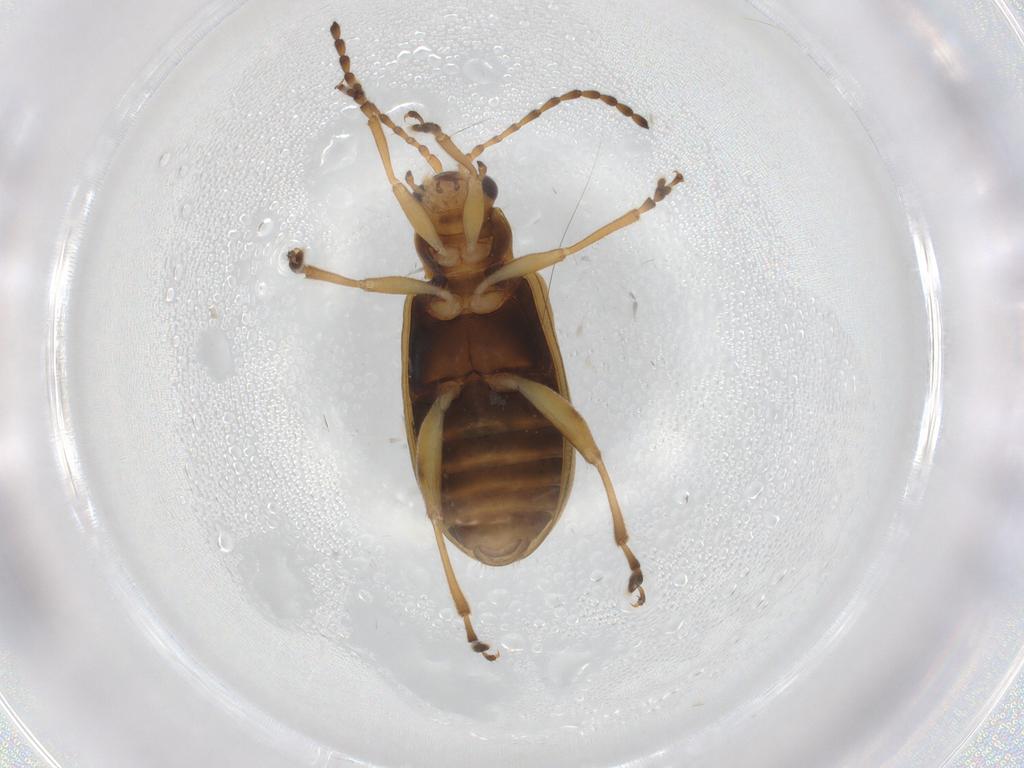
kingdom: Animalia
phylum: Arthropoda
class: Insecta
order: Coleoptera
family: Chrysomelidae
